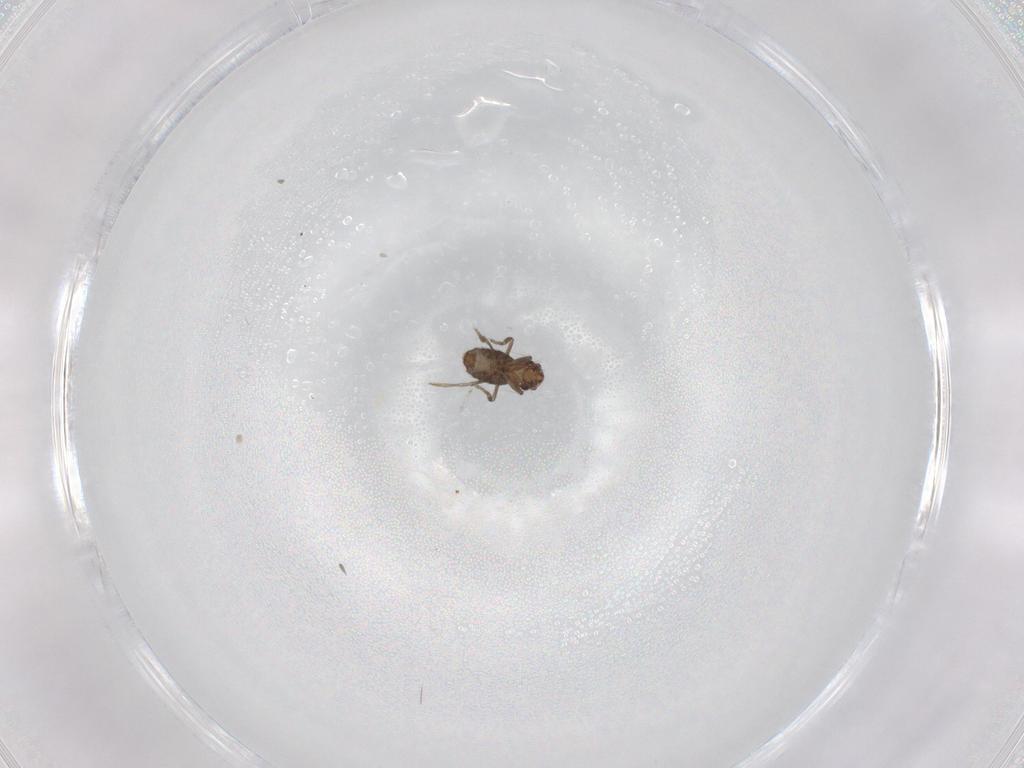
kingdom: Animalia
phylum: Arthropoda
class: Insecta
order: Diptera
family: Phoridae
